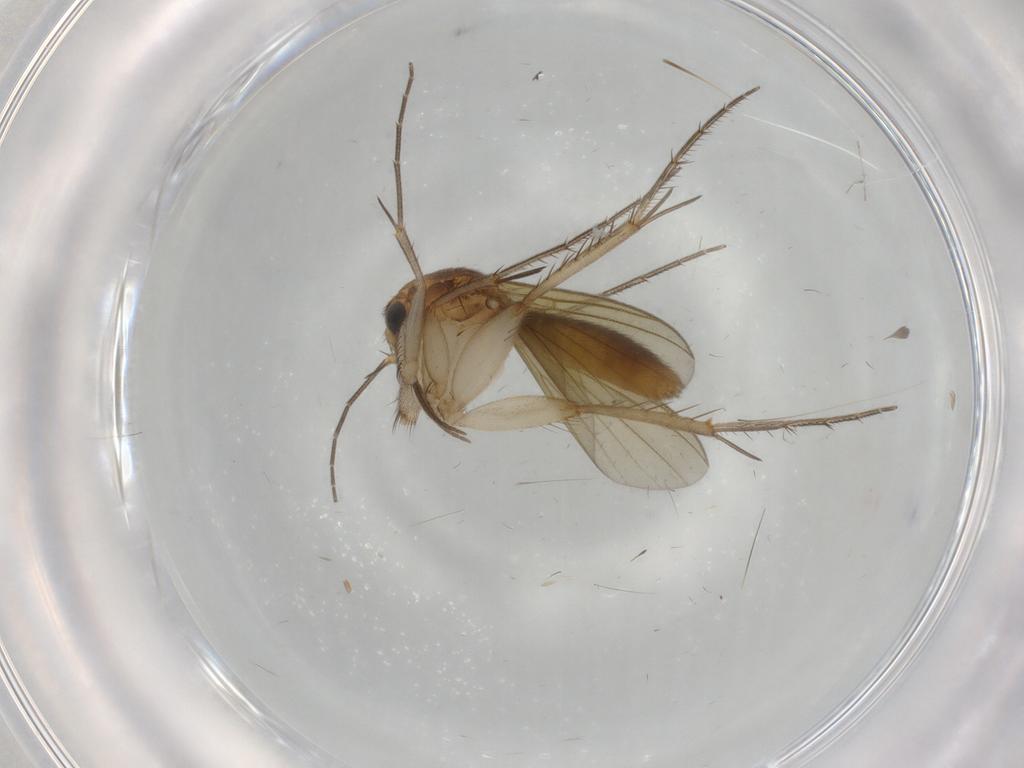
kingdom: Animalia
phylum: Arthropoda
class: Insecta
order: Diptera
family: Mycetophilidae
